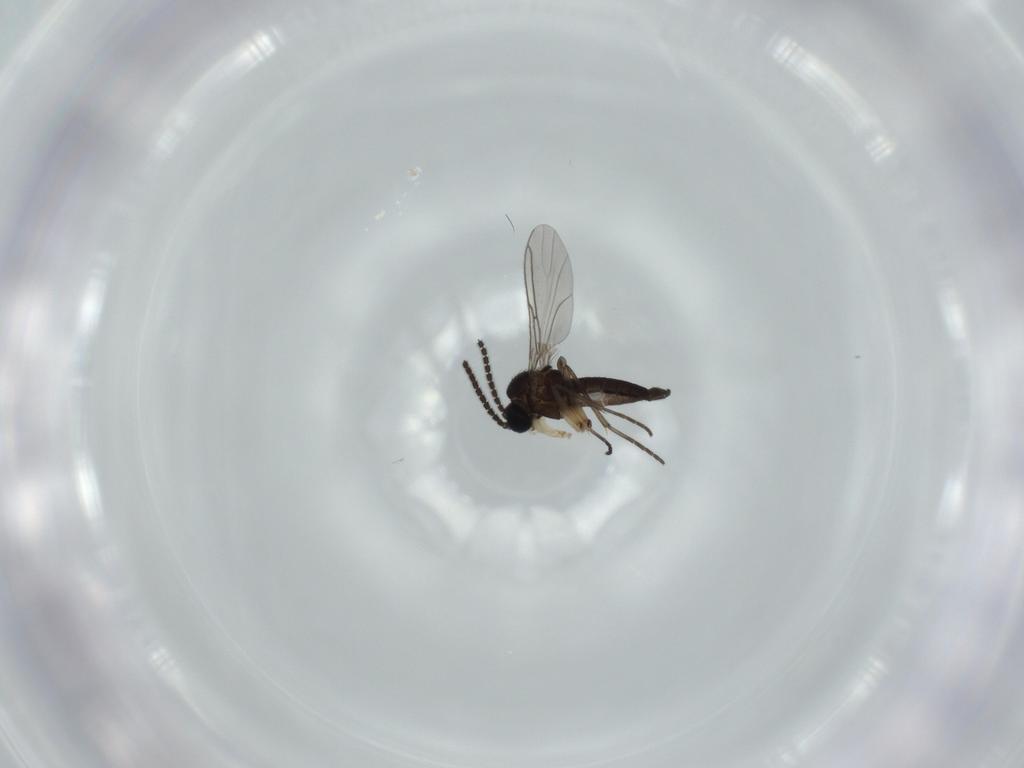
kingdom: Animalia
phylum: Arthropoda
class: Insecta
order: Diptera
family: Sciaridae
